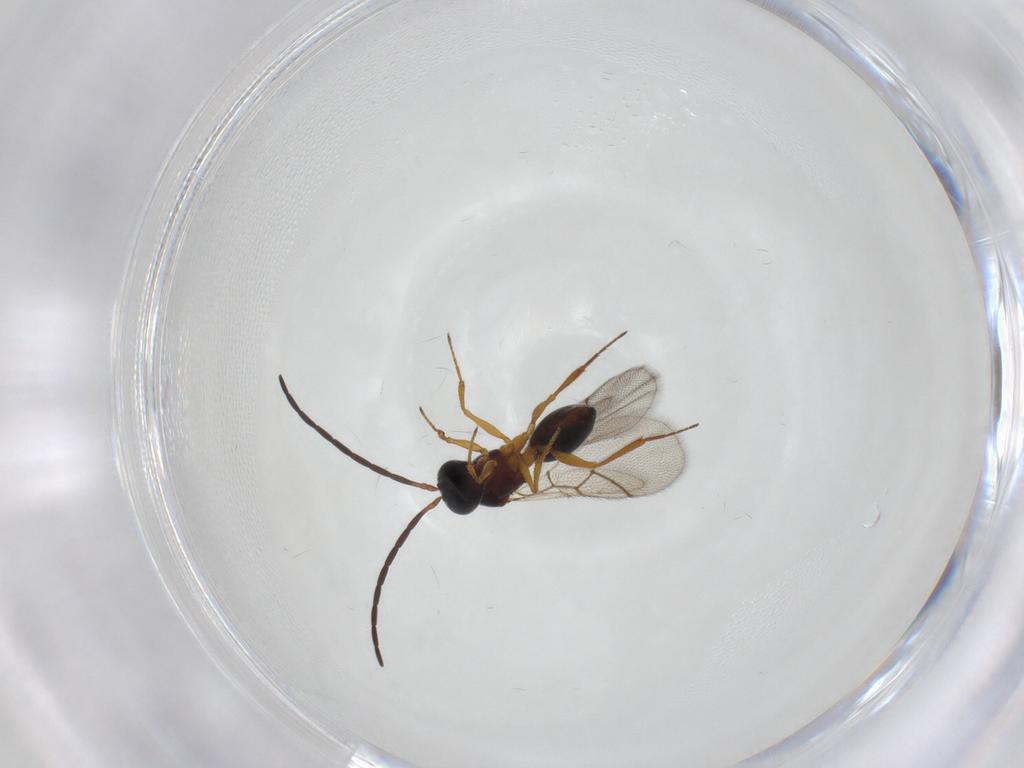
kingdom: Animalia
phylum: Arthropoda
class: Insecta
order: Hymenoptera
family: Figitidae
